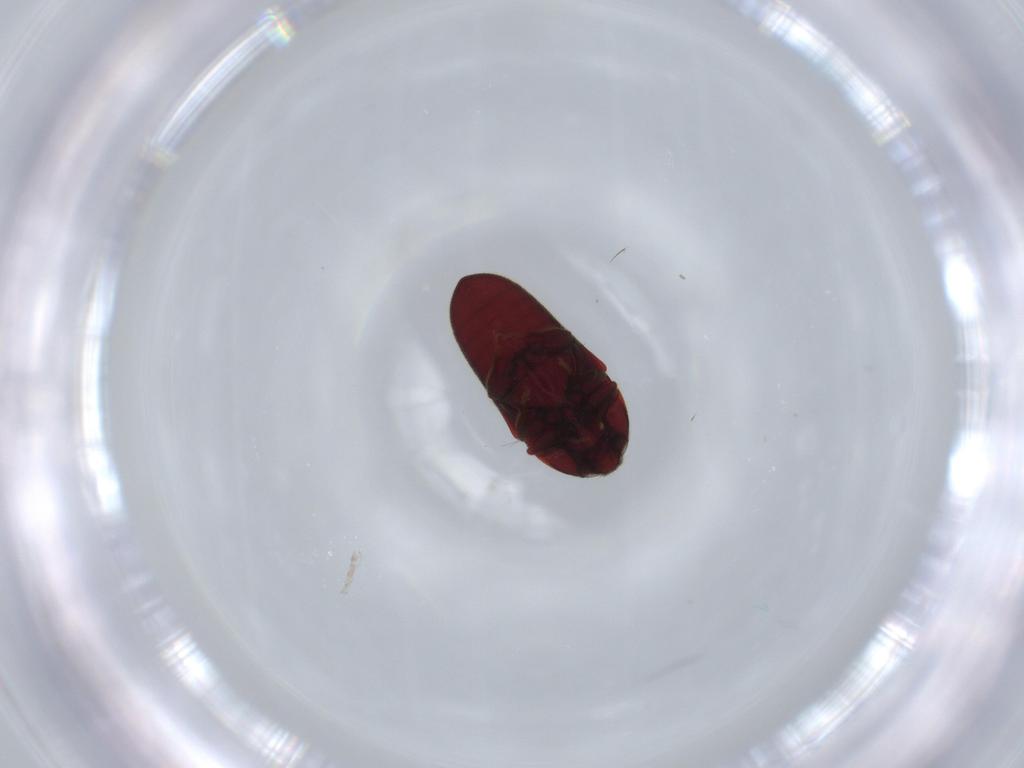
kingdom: Animalia
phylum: Arthropoda
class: Insecta
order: Coleoptera
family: Throscidae
